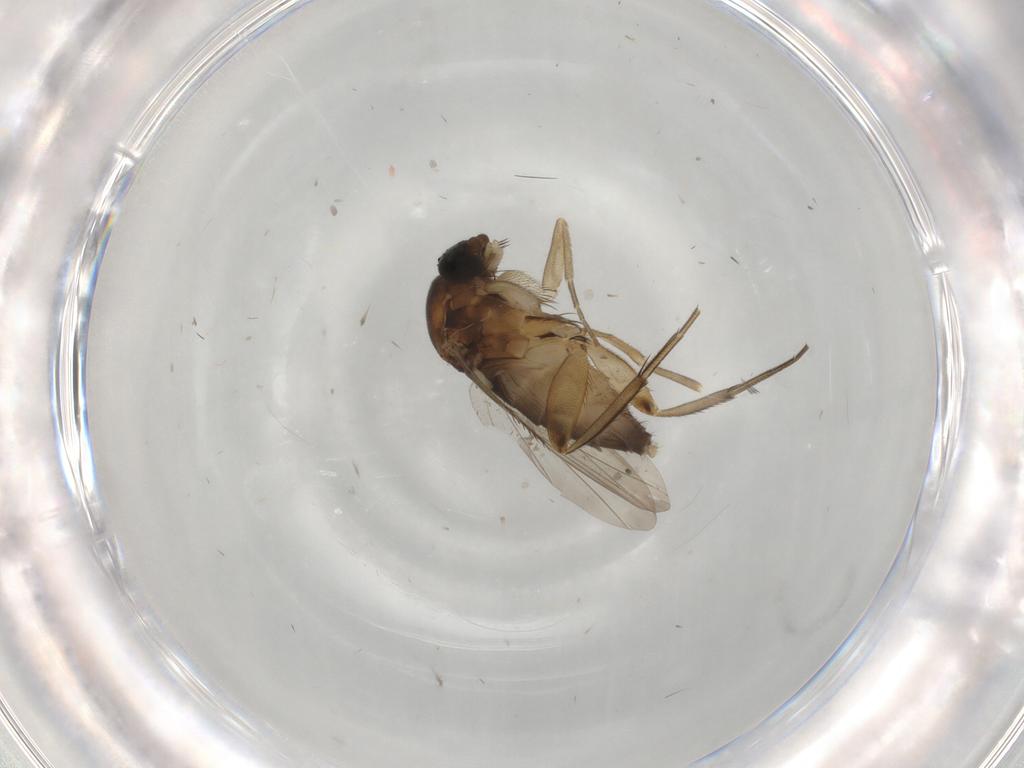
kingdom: Animalia
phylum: Arthropoda
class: Insecta
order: Diptera
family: Phoridae
